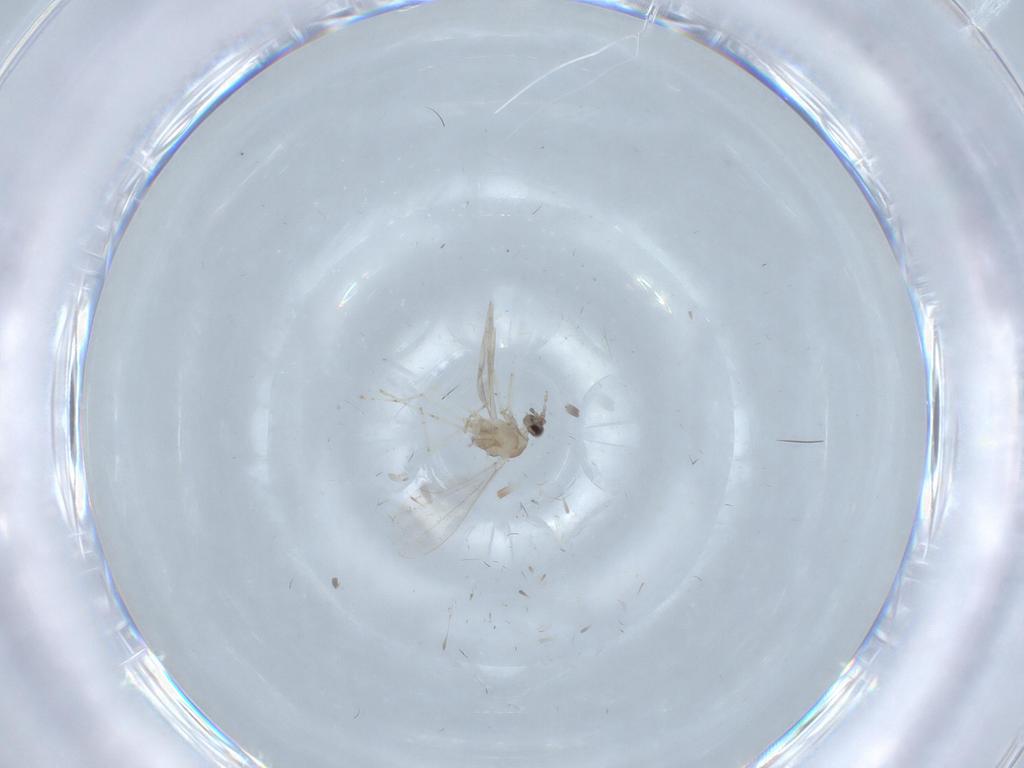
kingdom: Animalia
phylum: Arthropoda
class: Insecta
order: Diptera
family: Cecidomyiidae
